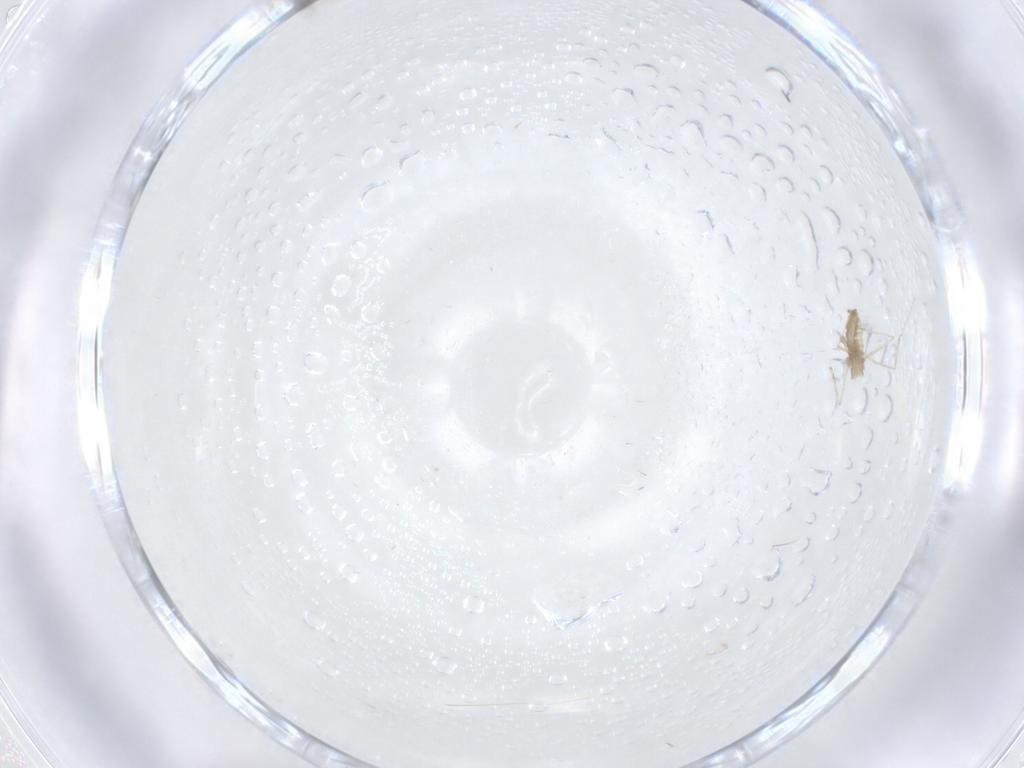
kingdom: Animalia
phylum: Arthropoda
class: Insecta
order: Diptera
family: Cecidomyiidae
